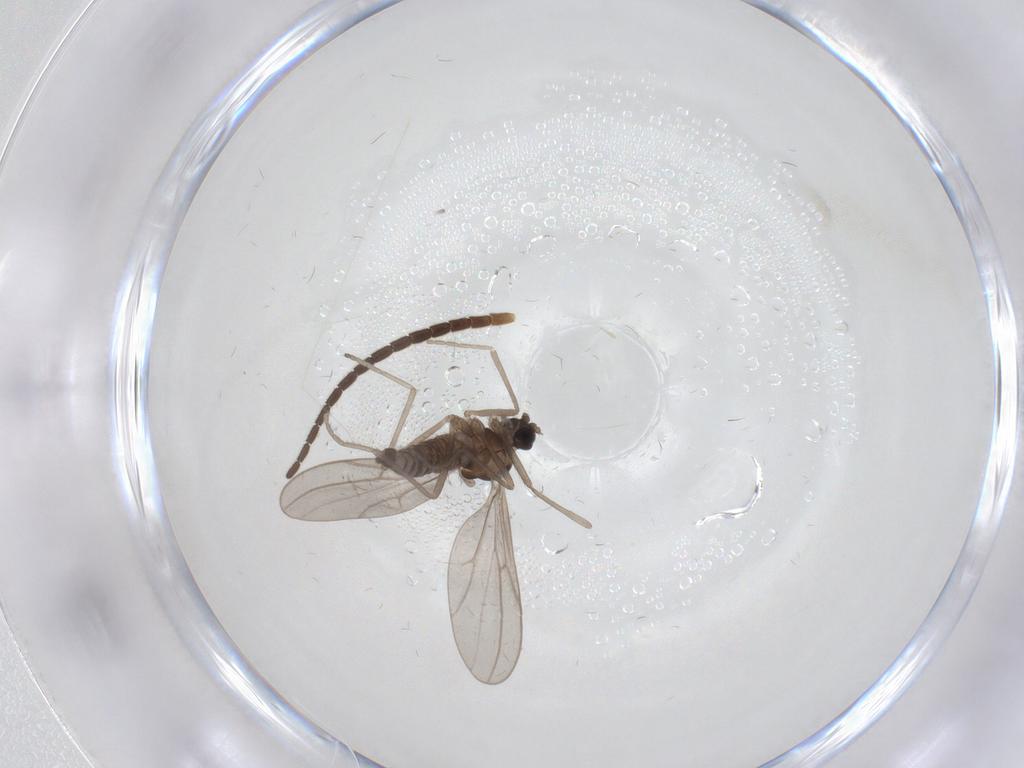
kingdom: Animalia
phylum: Arthropoda
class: Insecta
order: Diptera
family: Cecidomyiidae
